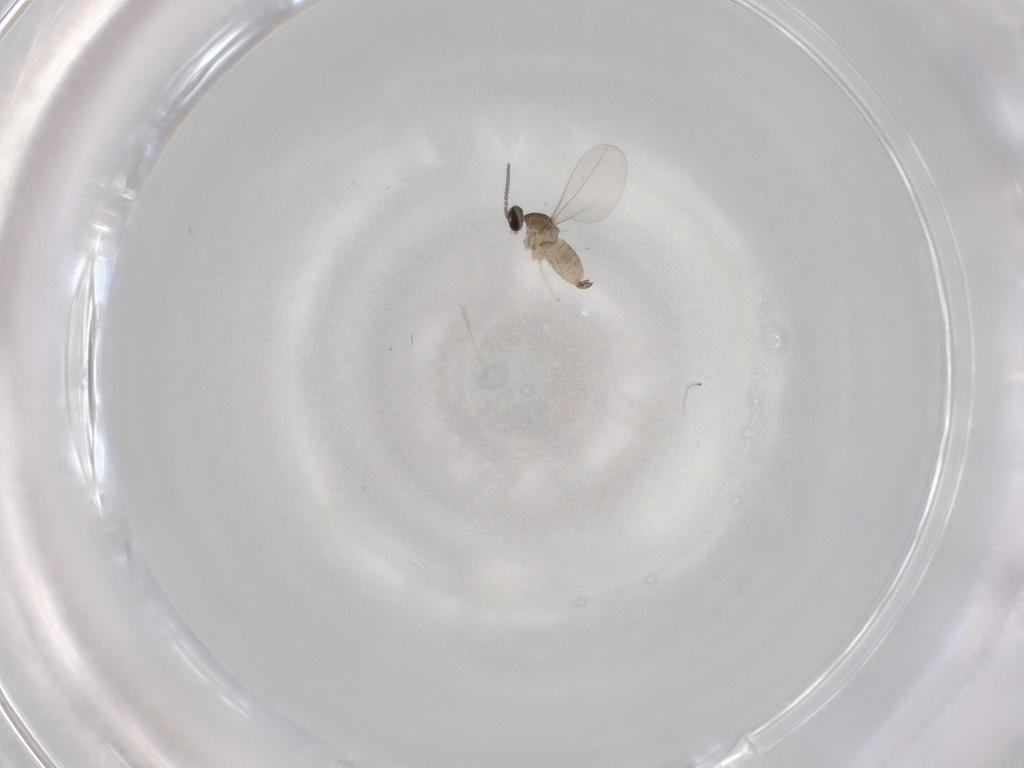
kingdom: Animalia
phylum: Arthropoda
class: Insecta
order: Diptera
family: Cecidomyiidae
